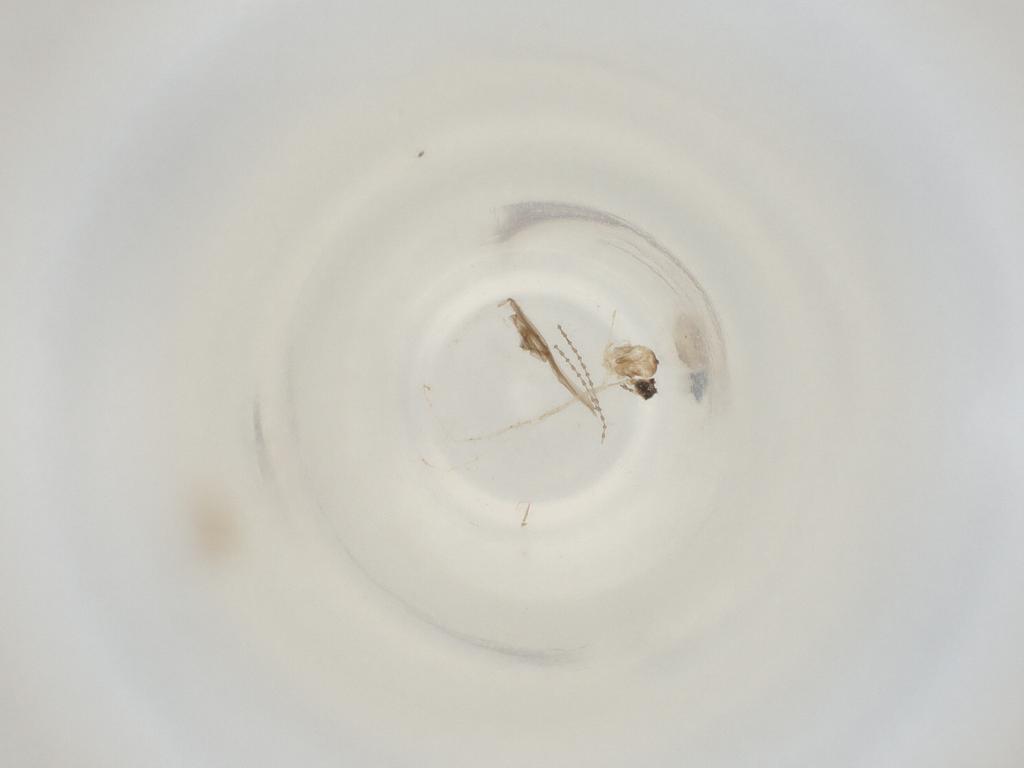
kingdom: Animalia
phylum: Arthropoda
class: Insecta
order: Diptera
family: Cecidomyiidae
